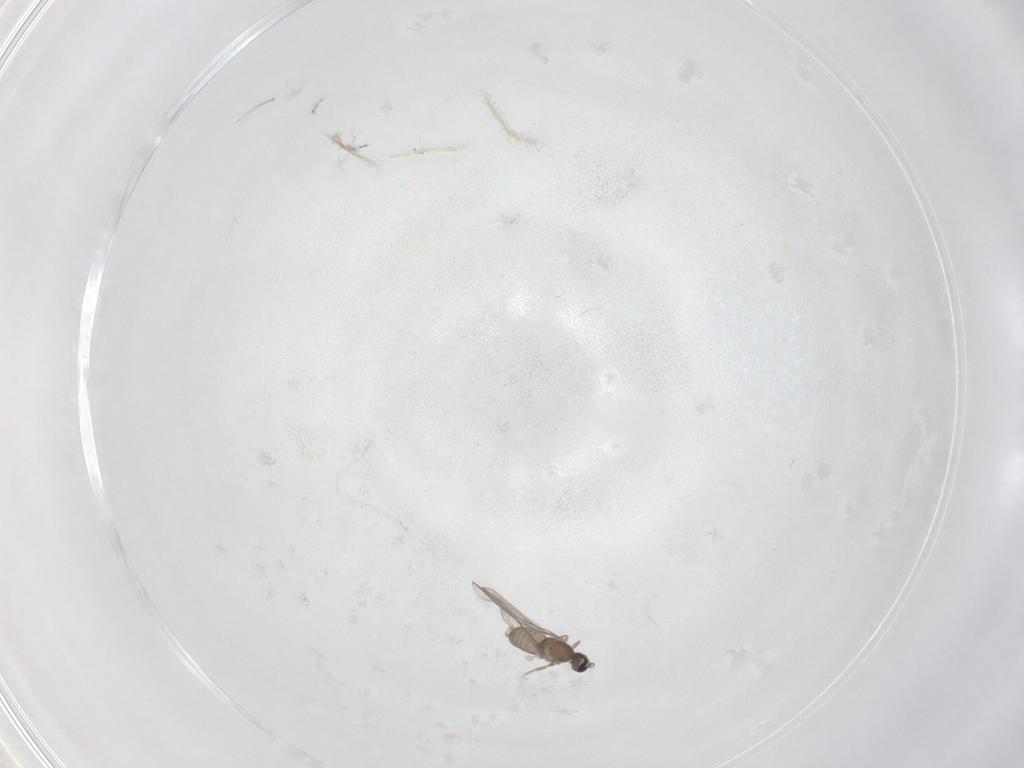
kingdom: Animalia
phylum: Arthropoda
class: Insecta
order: Diptera
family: Cecidomyiidae
